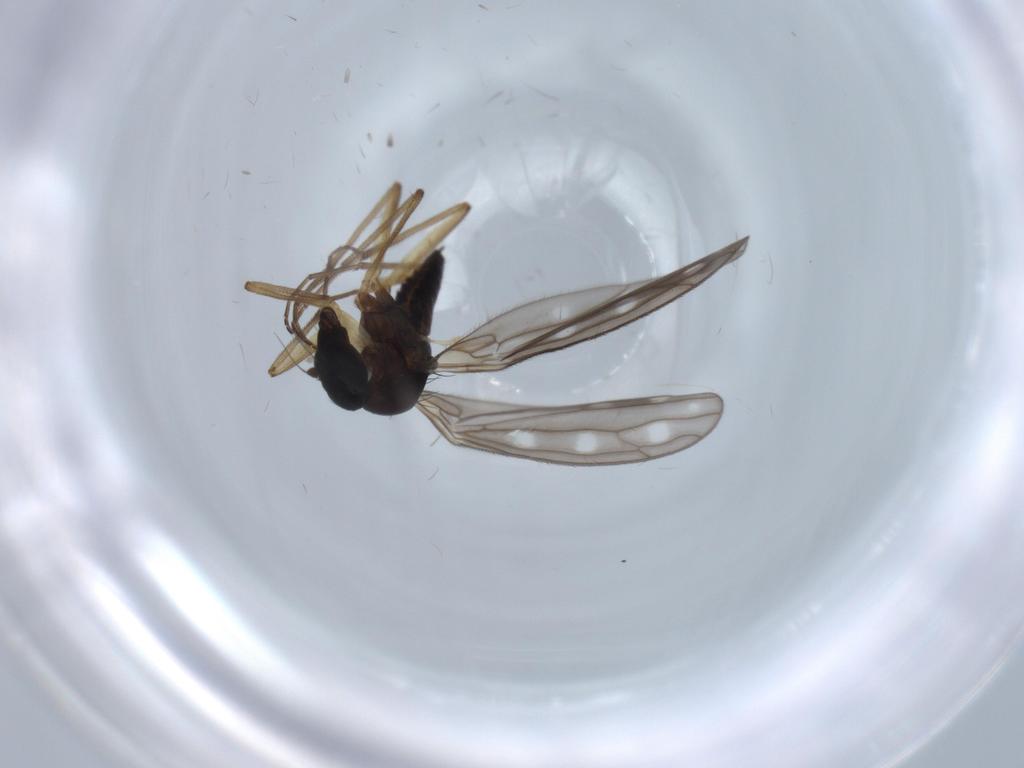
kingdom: Animalia
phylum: Arthropoda
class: Insecta
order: Diptera
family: Empididae
